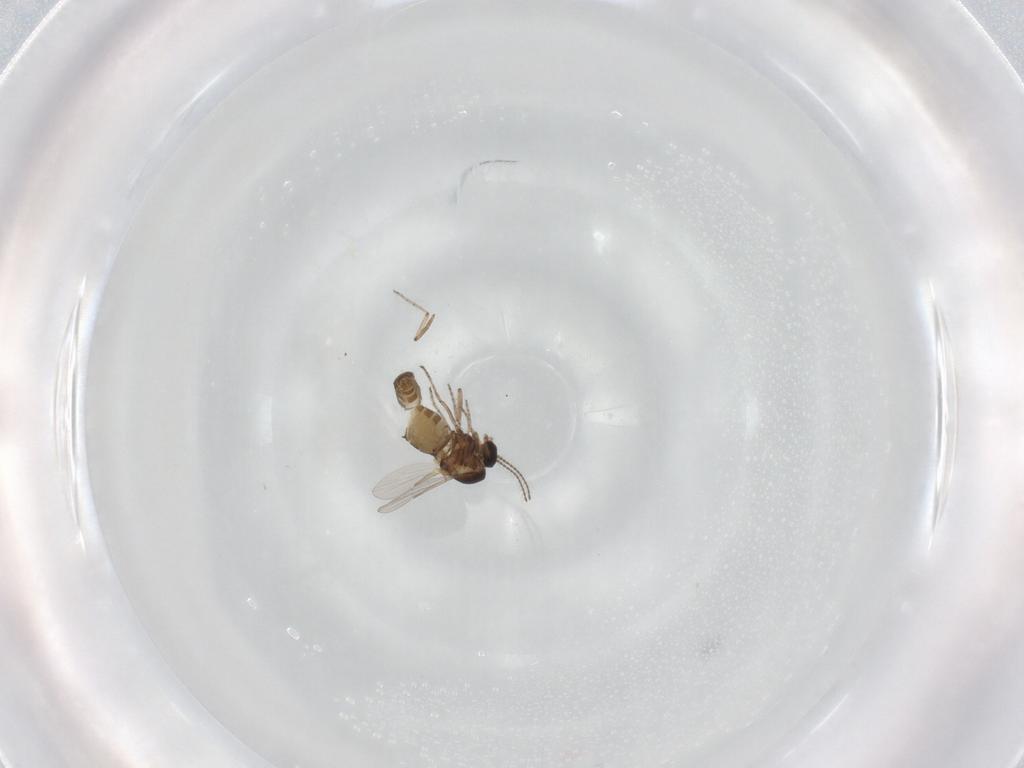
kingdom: Animalia
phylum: Arthropoda
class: Insecta
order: Diptera
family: Ceratopogonidae
